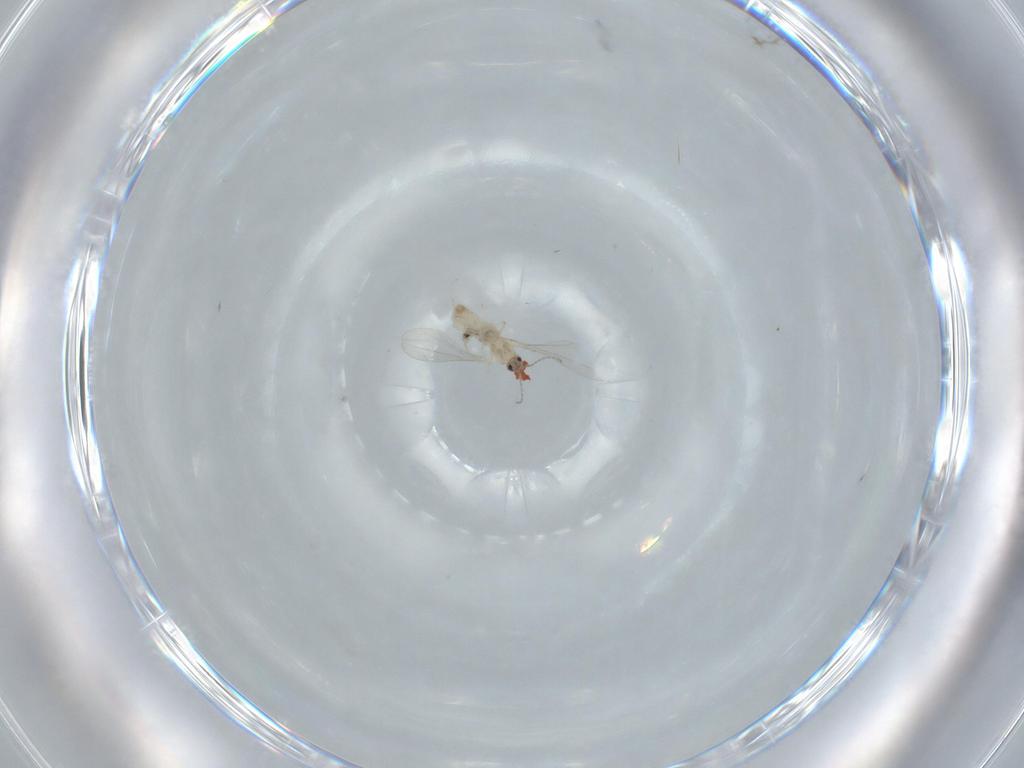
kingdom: Animalia
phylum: Arthropoda
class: Insecta
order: Diptera
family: Cecidomyiidae
